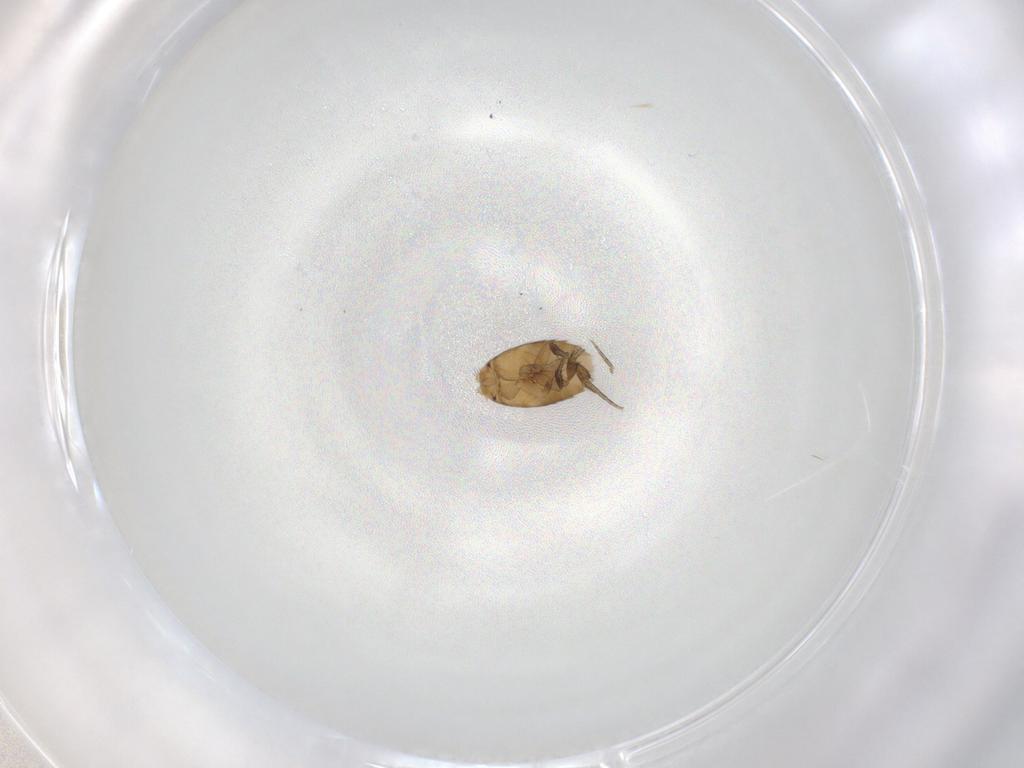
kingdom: Animalia
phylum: Arthropoda
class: Insecta
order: Diptera
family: Phoridae
